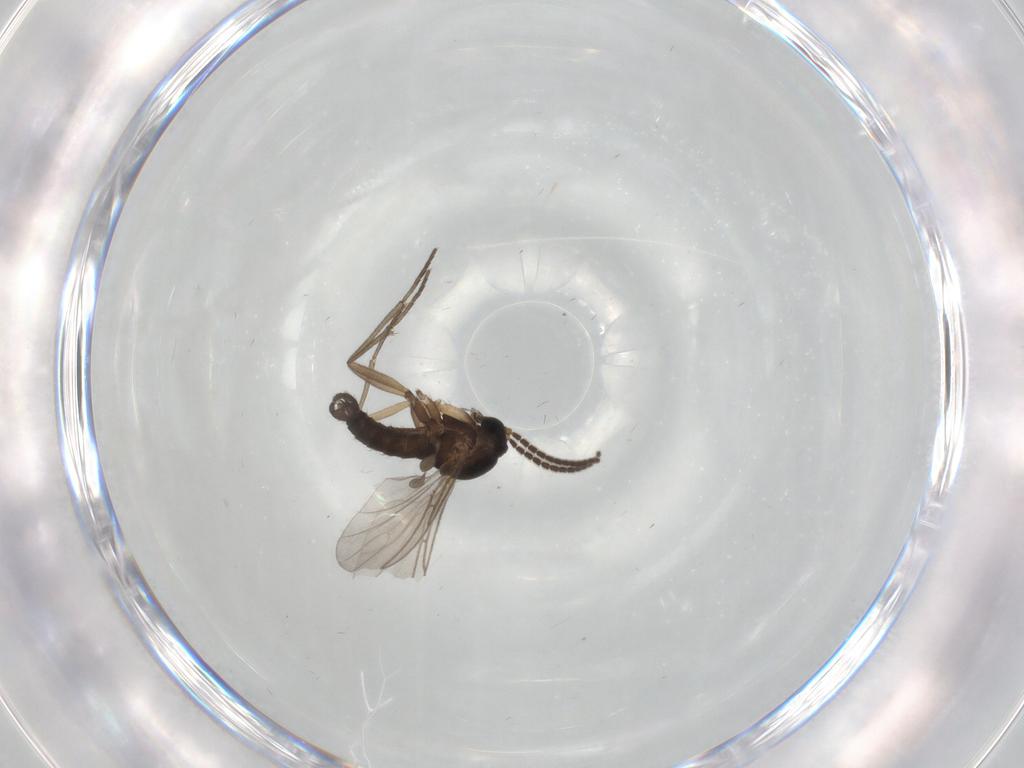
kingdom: Animalia
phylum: Arthropoda
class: Insecta
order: Diptera
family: Sciaridae
